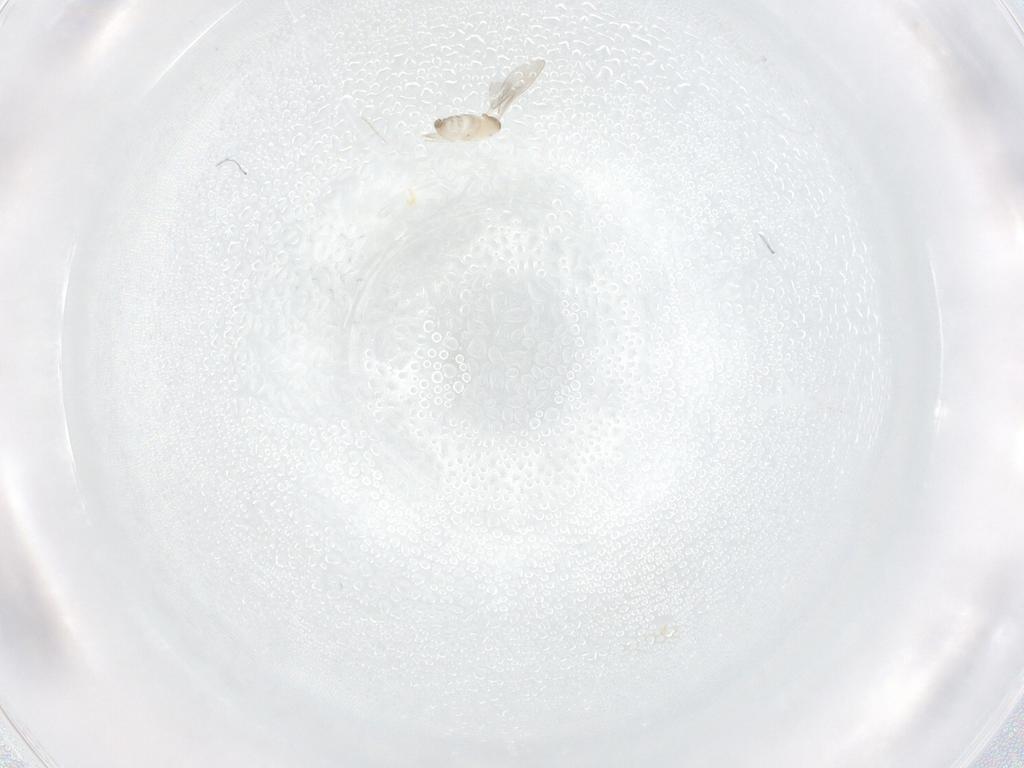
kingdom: Animalia
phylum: Arthropoda
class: Insecta
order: Diptera
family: Cecidomyiidae
